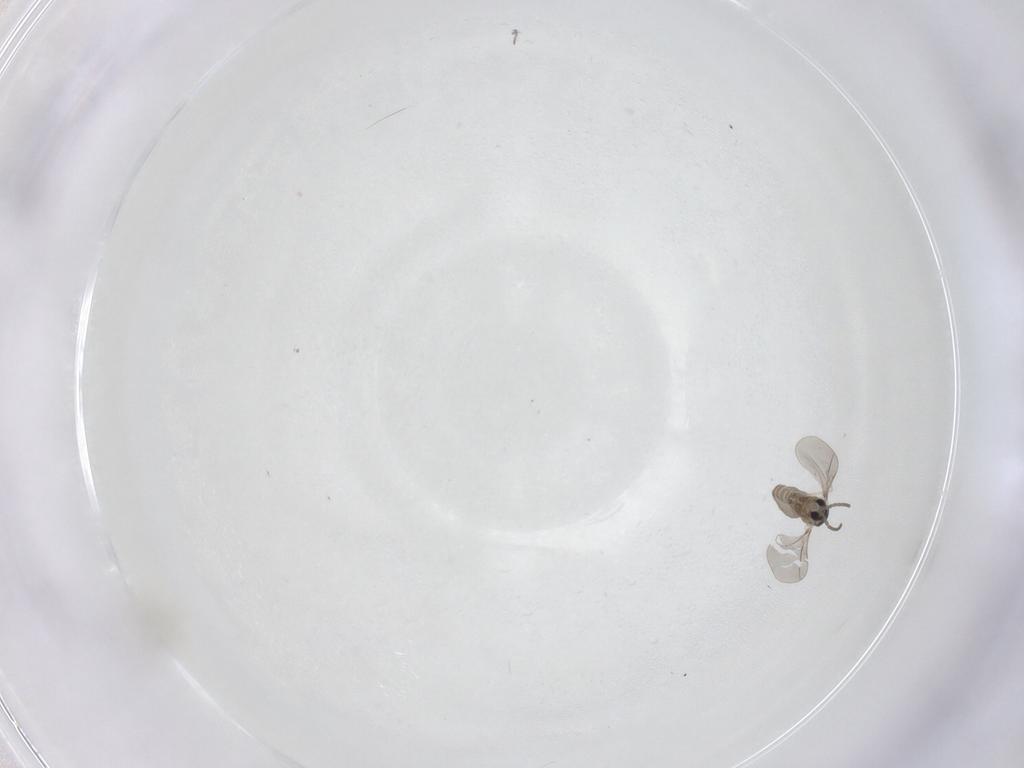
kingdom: Animalia
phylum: Arthropoda
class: Insecta
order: Diptera
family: Cecidomyiidae
